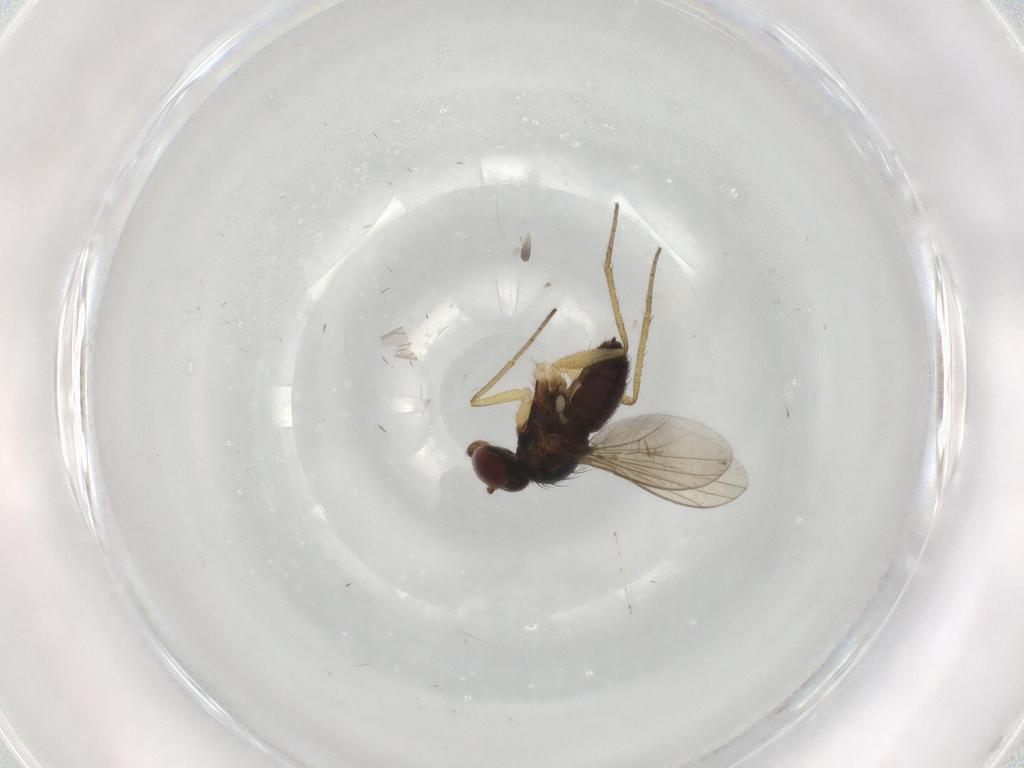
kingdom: Animalia
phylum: Arthropoda
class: Insecta
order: Diptera
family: Dolichopodidae
